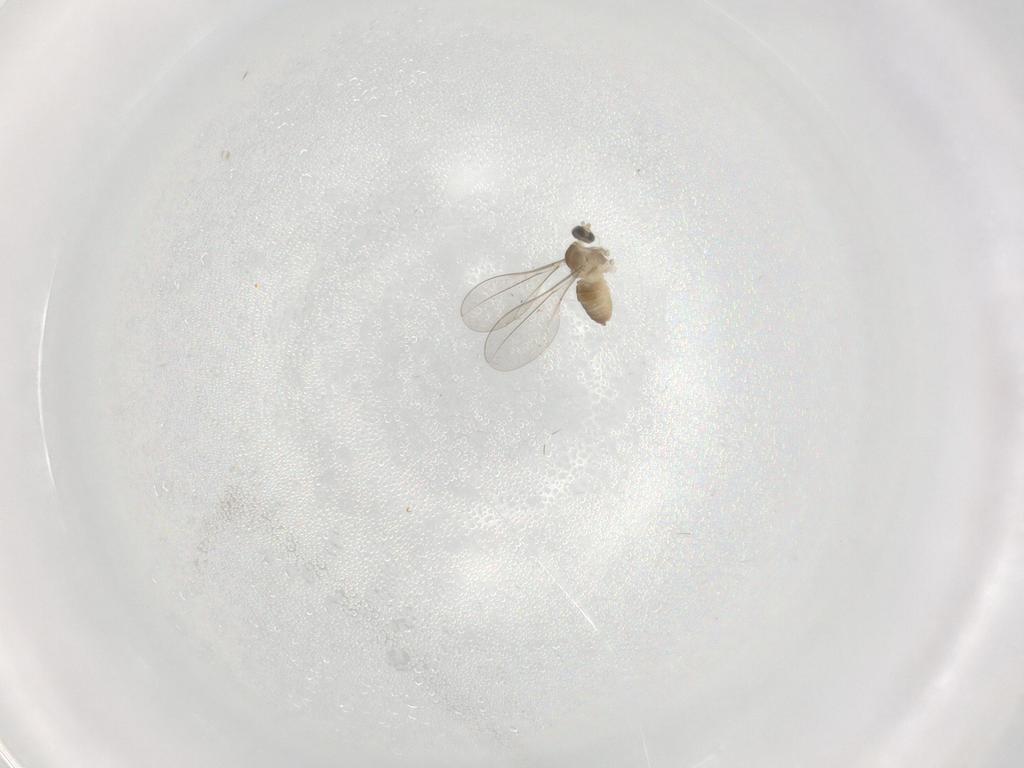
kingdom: Animalia
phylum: Arthropoda
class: Insecta
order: Diptera
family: Cecidomyiidae
